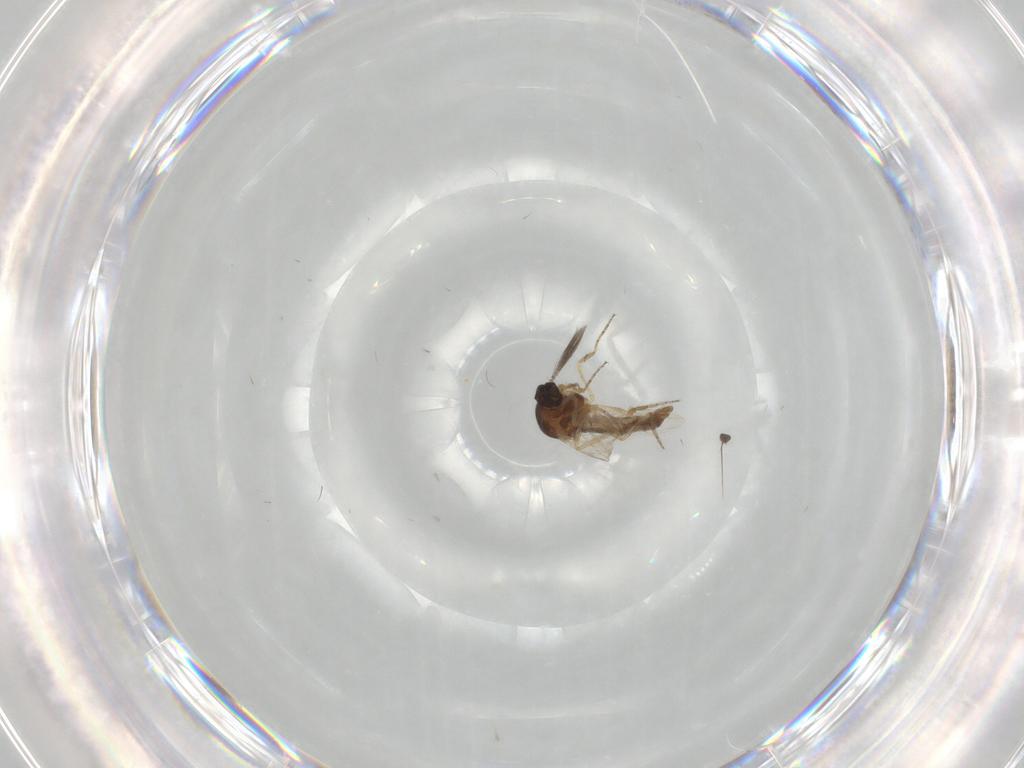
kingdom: Animalia
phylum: Arthropoda
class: Insecta
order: Diptera
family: Ceratopogonidae
